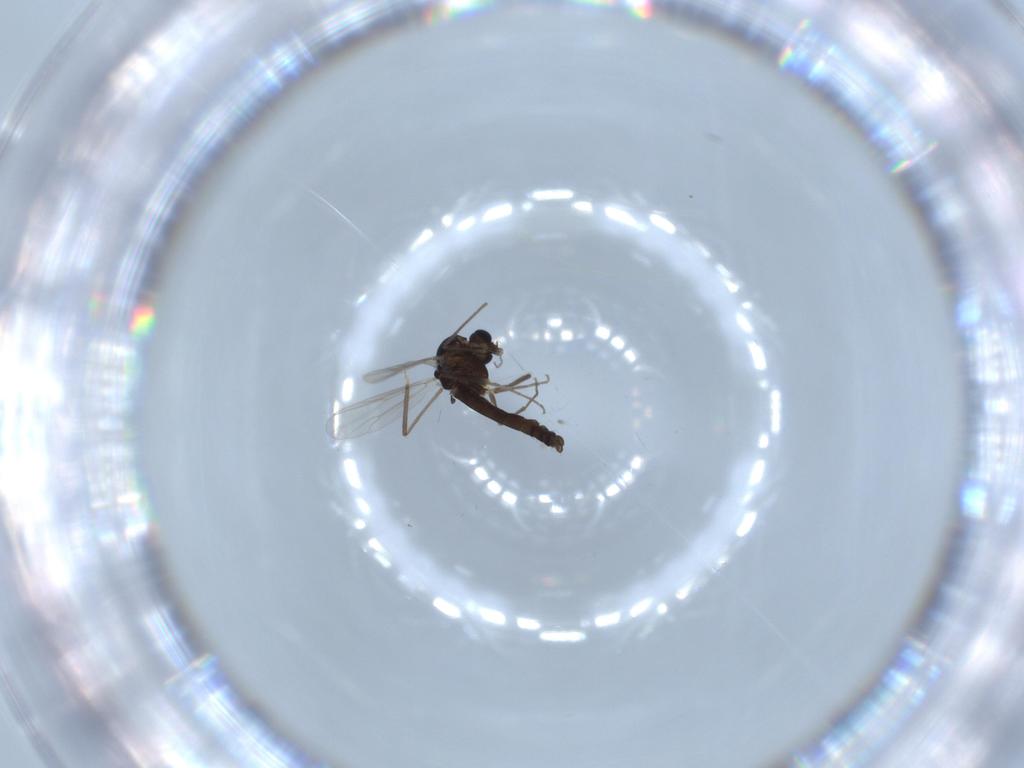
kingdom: Animalia
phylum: Arthropoda
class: Insecta
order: Diptera
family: Chironomidae
